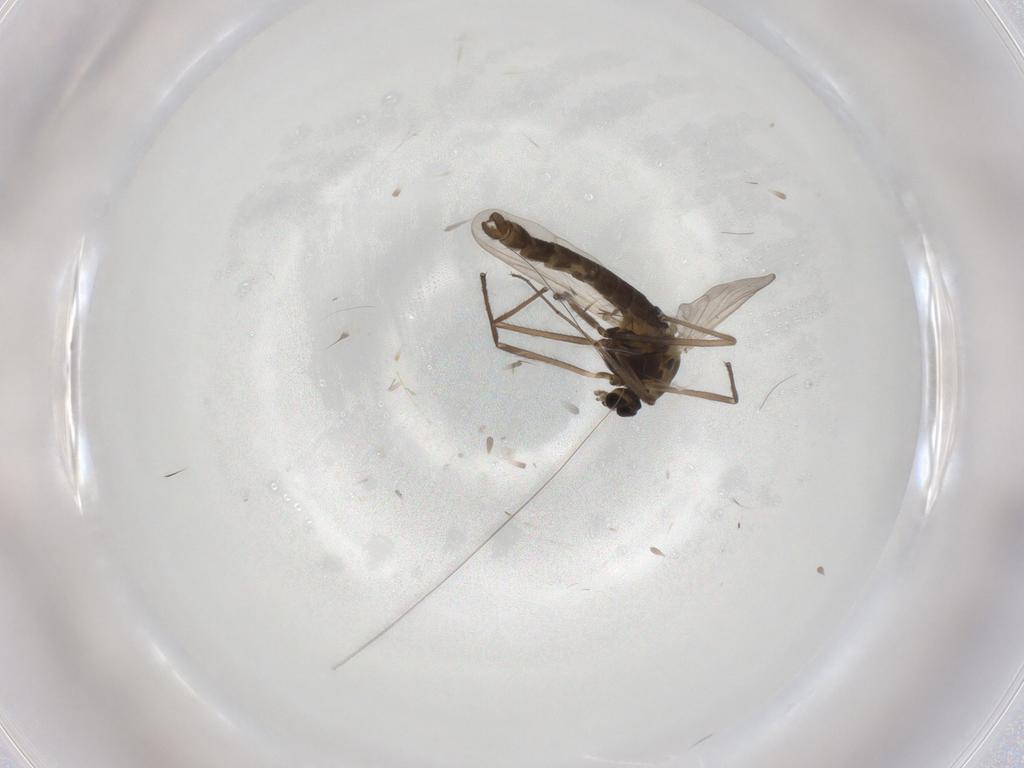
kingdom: Animalia
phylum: Arthropoda
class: Insecta
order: Diptera
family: Chironomidae
